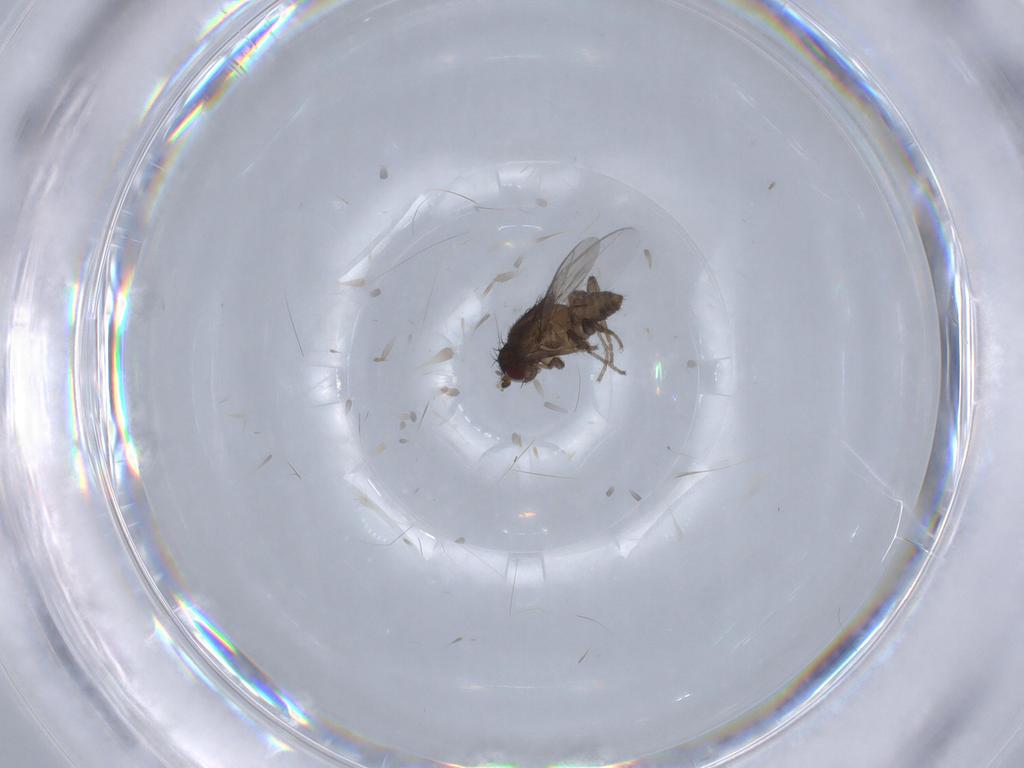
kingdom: Animalia
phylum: Arthropoda
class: Insecta
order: Diptera
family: Sphaeroceridae
